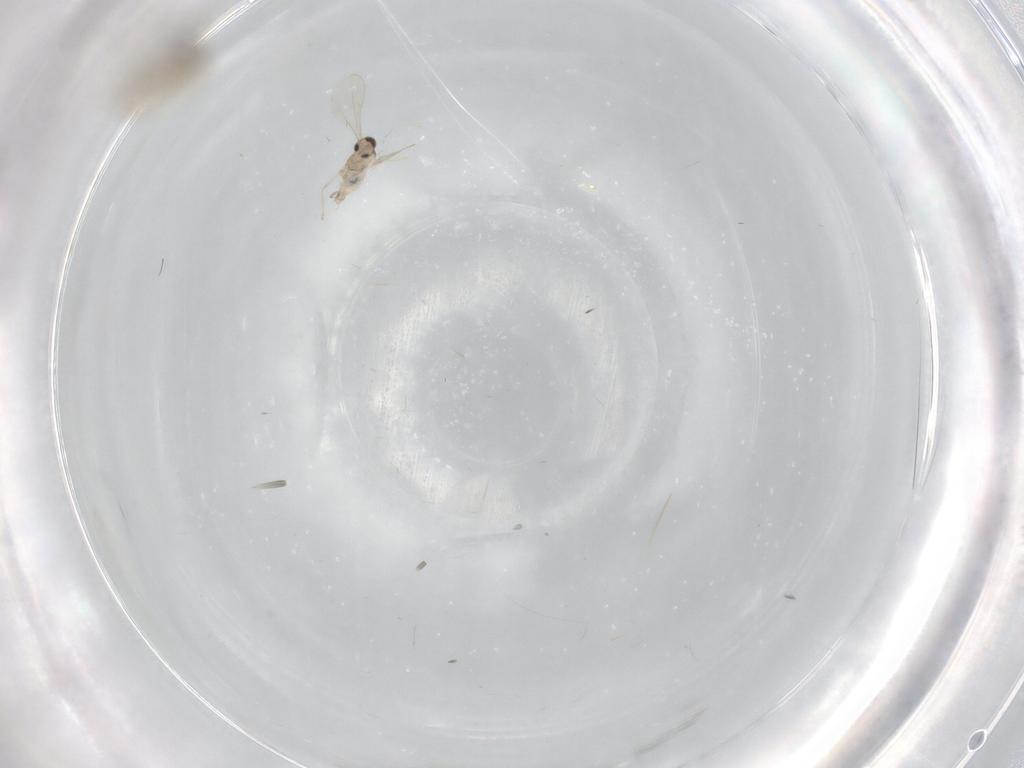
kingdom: Animalia
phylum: Arthropoda
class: Insecta
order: Diptera
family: Cecidomyiidae
